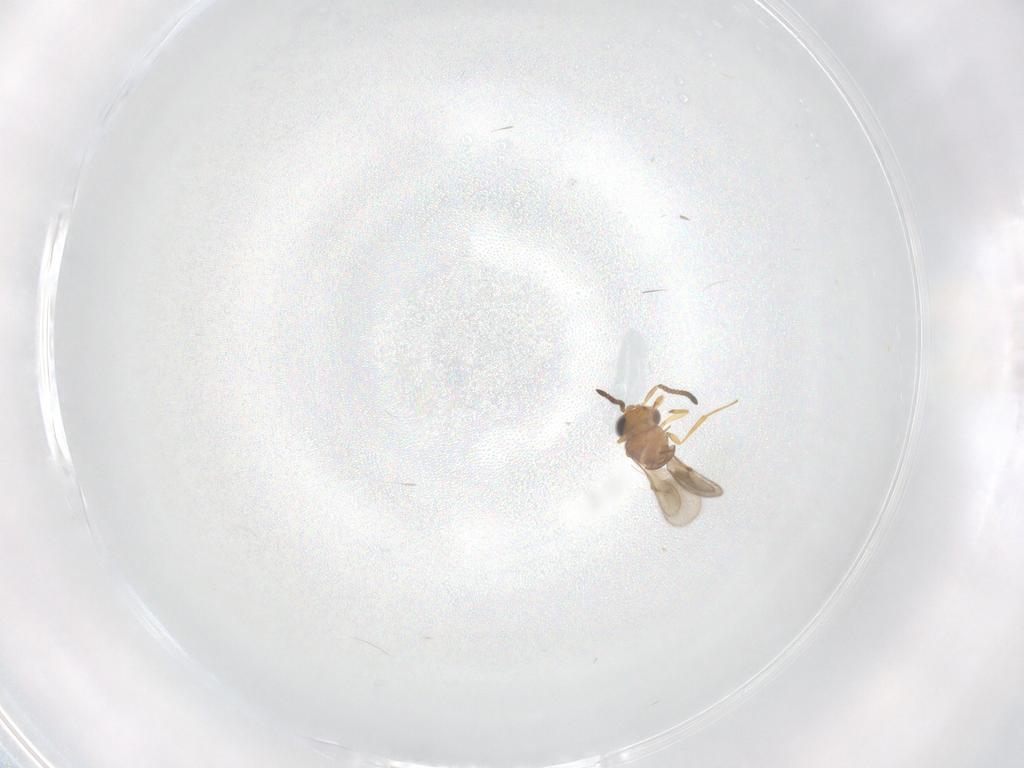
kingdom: Animalia
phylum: Arthropoda
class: Insecta
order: Hymenoptera
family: Scelionidae
